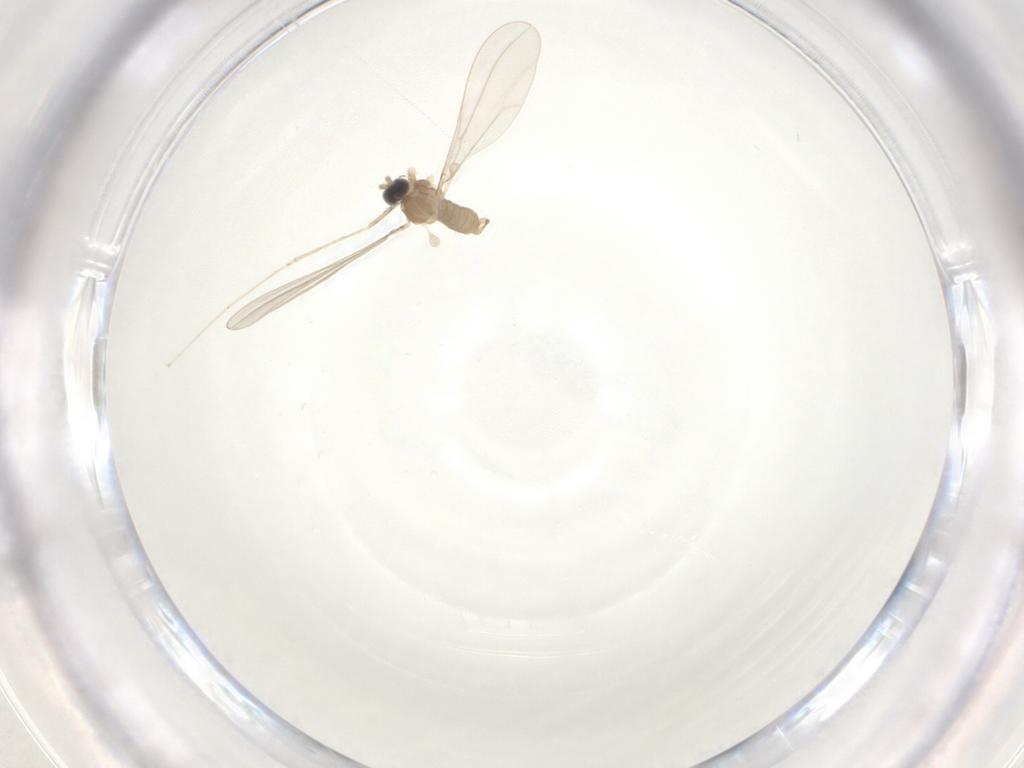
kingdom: Animalia
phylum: Arthropoda
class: Insecta
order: Diptera
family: Cecidomyiidae
